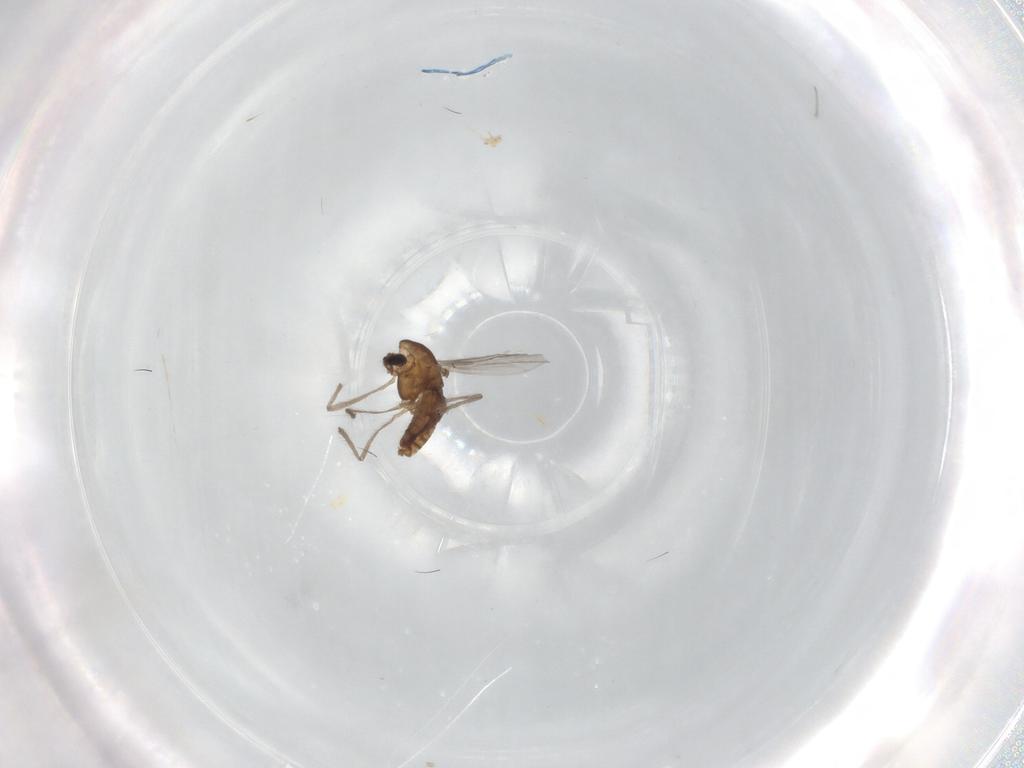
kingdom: Animalia
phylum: Arthropoda
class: Insecta
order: Diptera
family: Chironomidae
